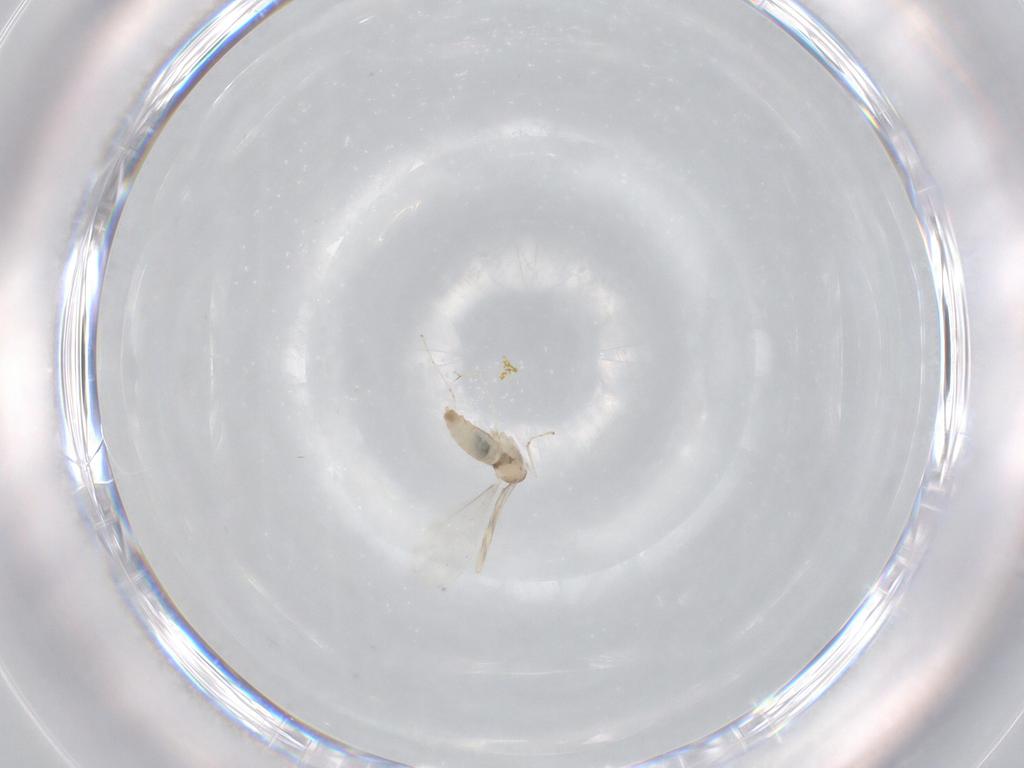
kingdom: Animalia
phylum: Arthropoda
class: Insecta
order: Diptera
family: Cecidomyiidae
